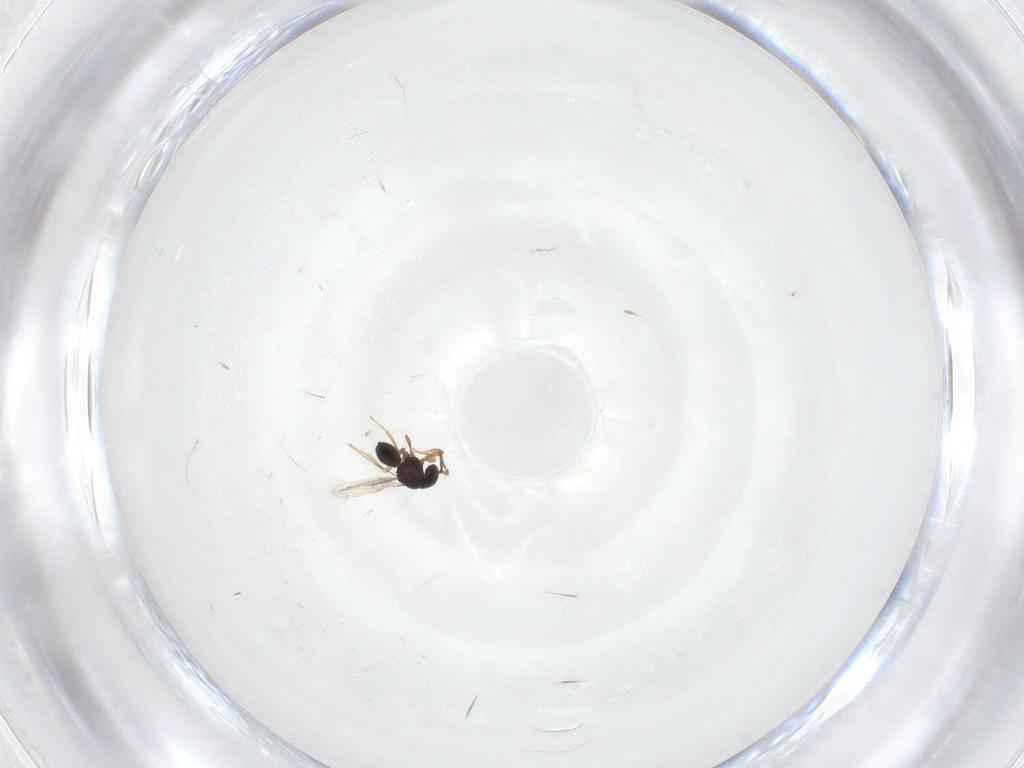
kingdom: Animalia
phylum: Arthropoda
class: Insecta
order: Hymenoptera
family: Scelionidae
